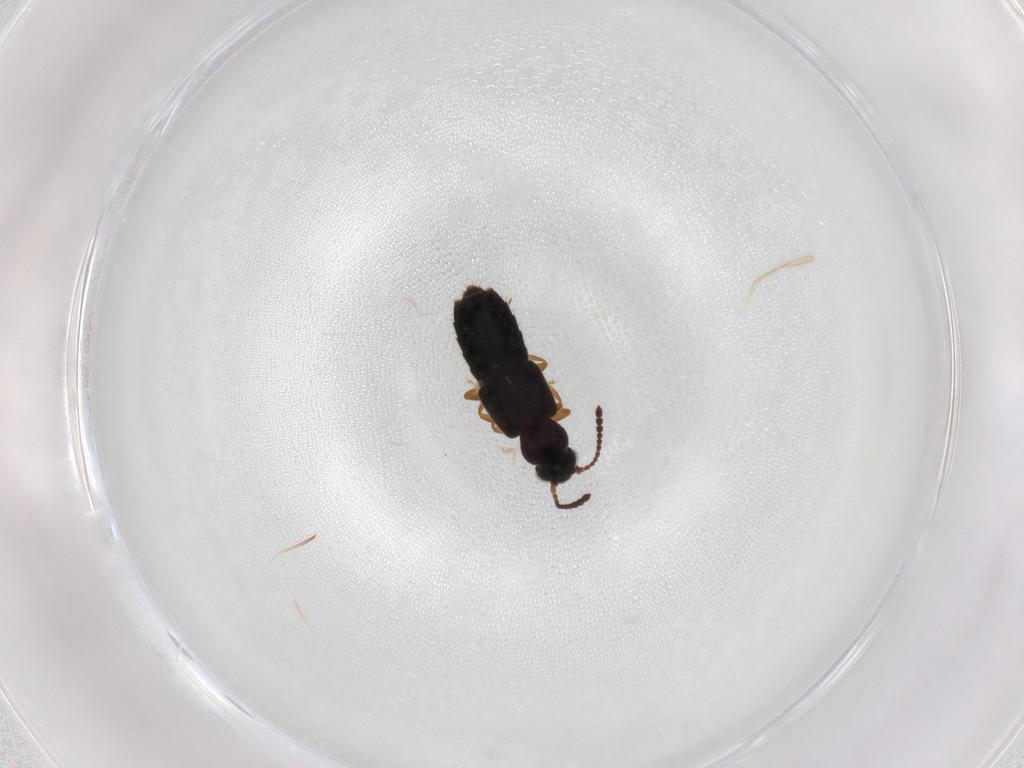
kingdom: Animalia
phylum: Arthropoda
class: Insecta
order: Coleoptera
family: Staphylinidae
